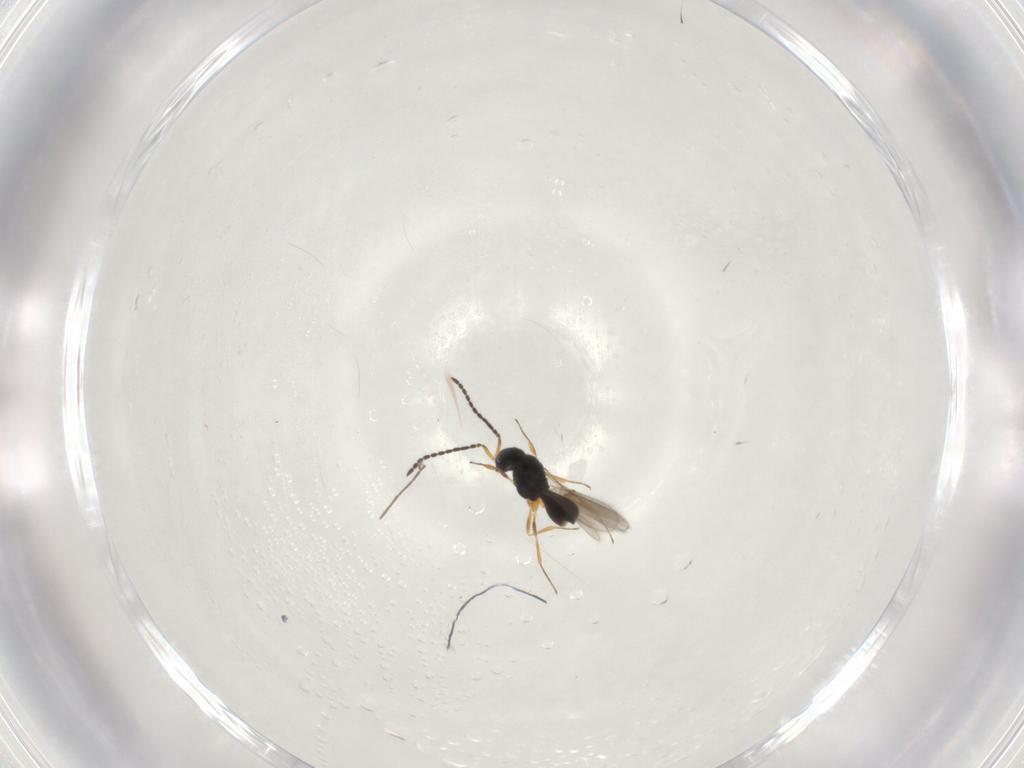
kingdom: Animalia
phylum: Arthropoda
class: Insecta
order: Hymenoptera
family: Scelionidae
